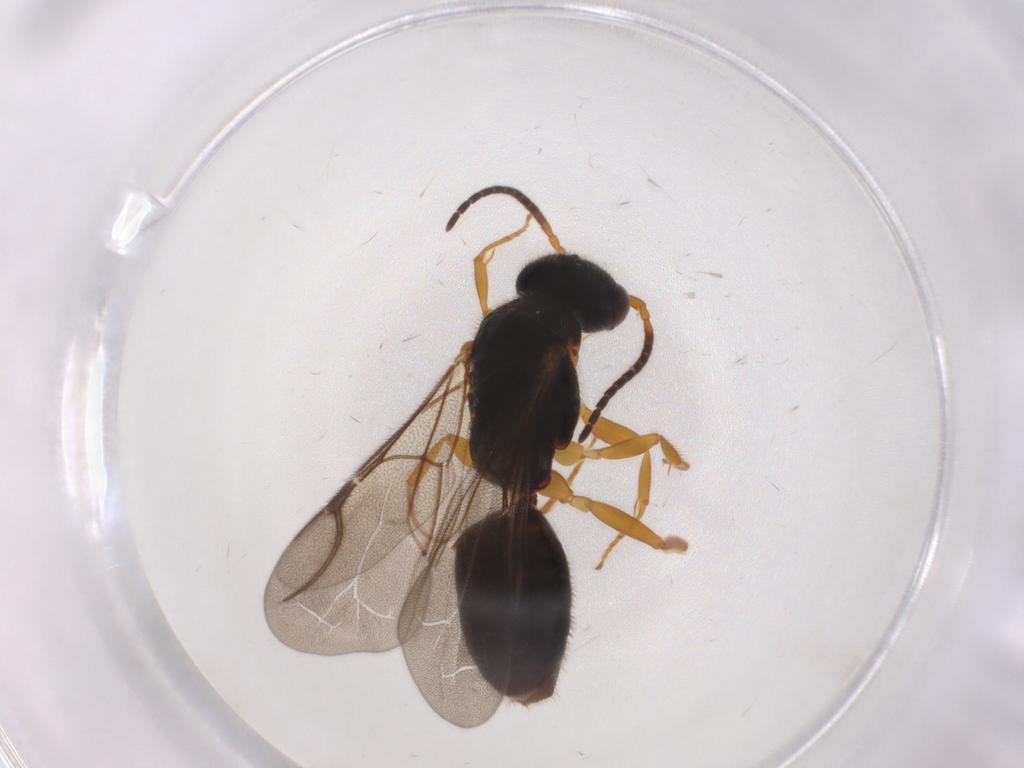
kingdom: Animalia
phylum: Arthropoda
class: Insecta
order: Hymenoptera
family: Bethylidae
